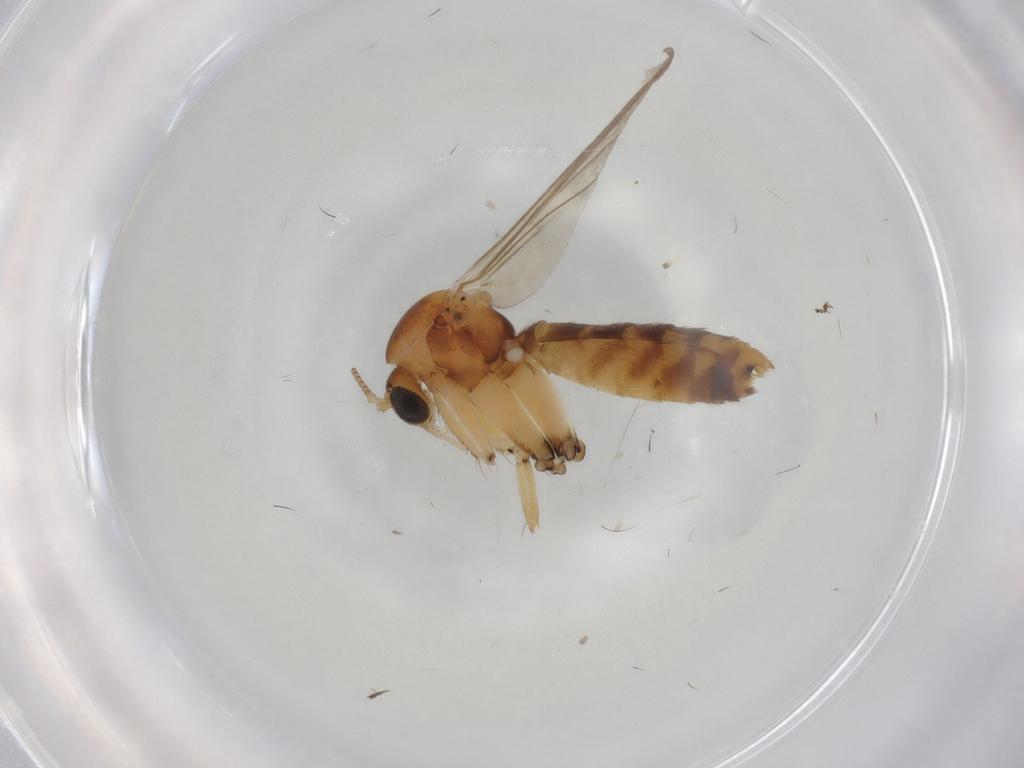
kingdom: Animalia
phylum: Arthropoda
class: Insecta
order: Diptera
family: Mycetophilidae
